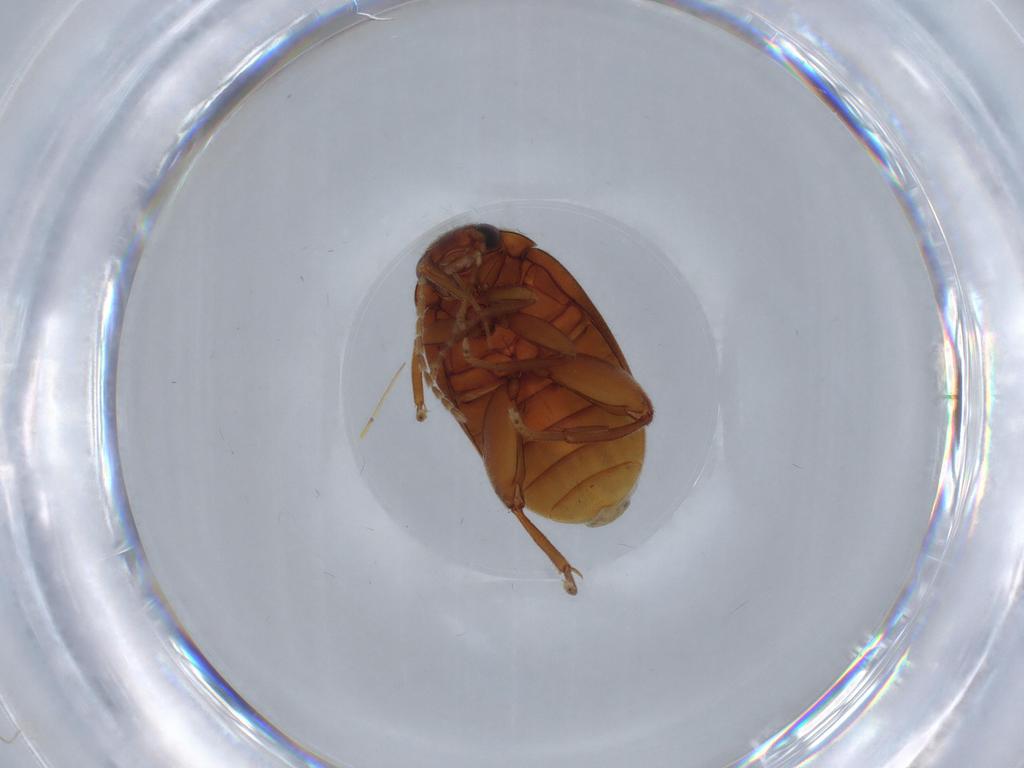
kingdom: Animalia
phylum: Arthropoda
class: Insecta
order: Coleoptera
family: Scirtidae
